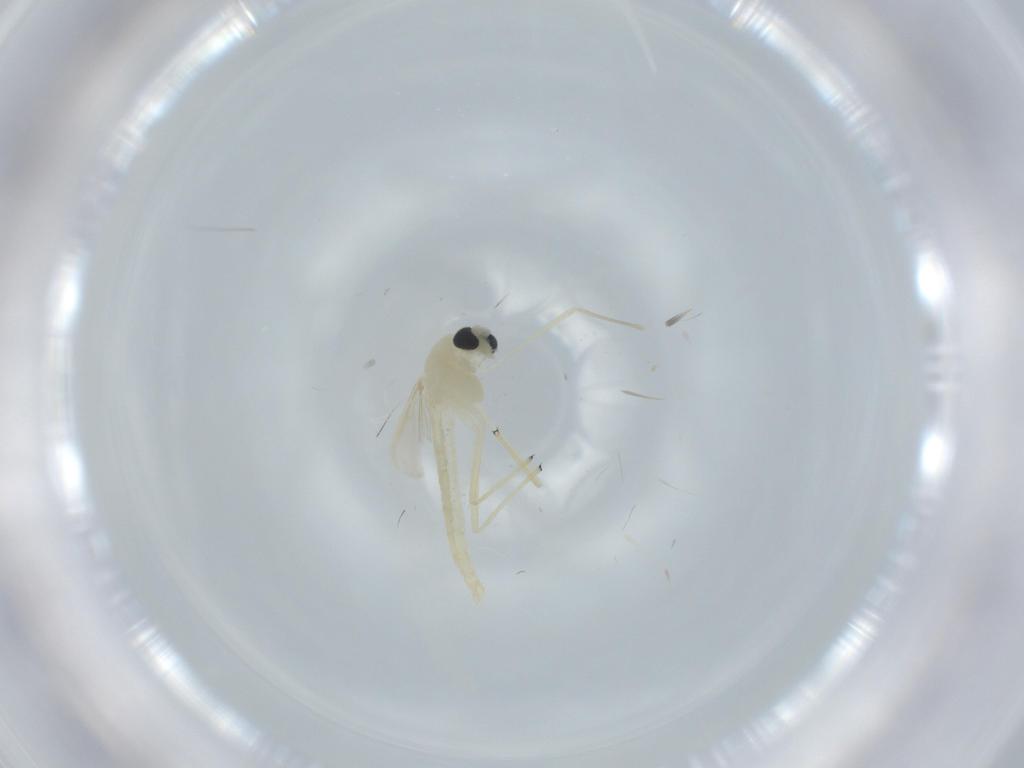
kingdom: Animalia
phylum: Arthropoda
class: Insecta
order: Diptera
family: Chironomidae
